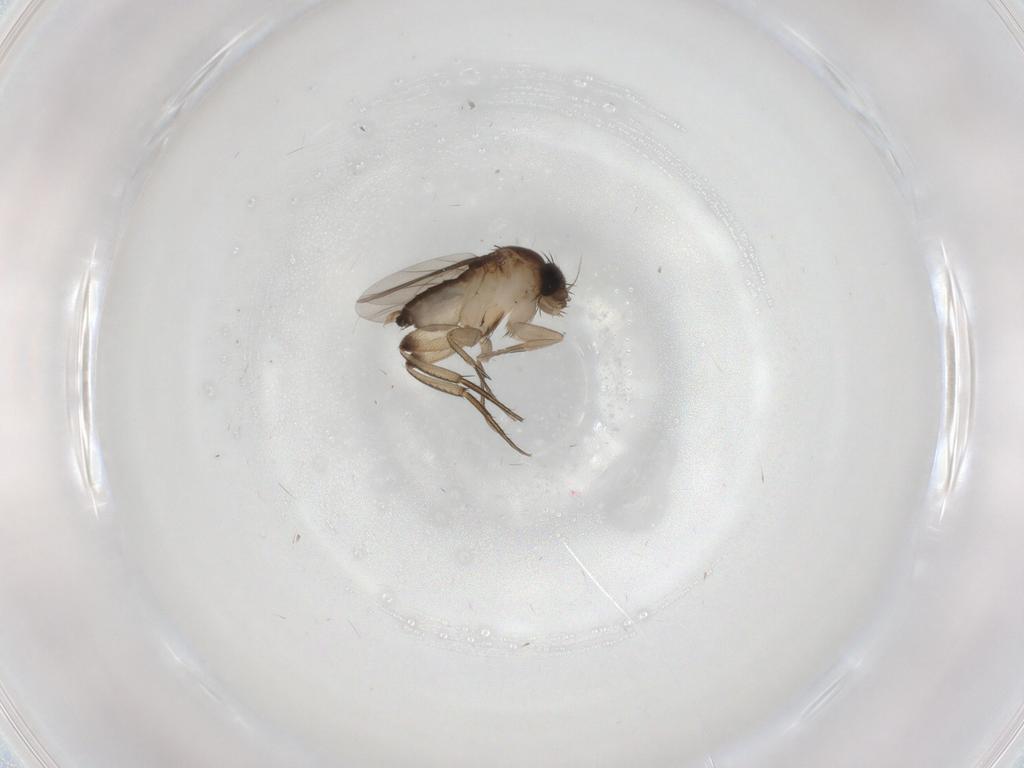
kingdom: Animalia
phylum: Arthropoda
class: Insecta
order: Diptera
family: Phoridae
